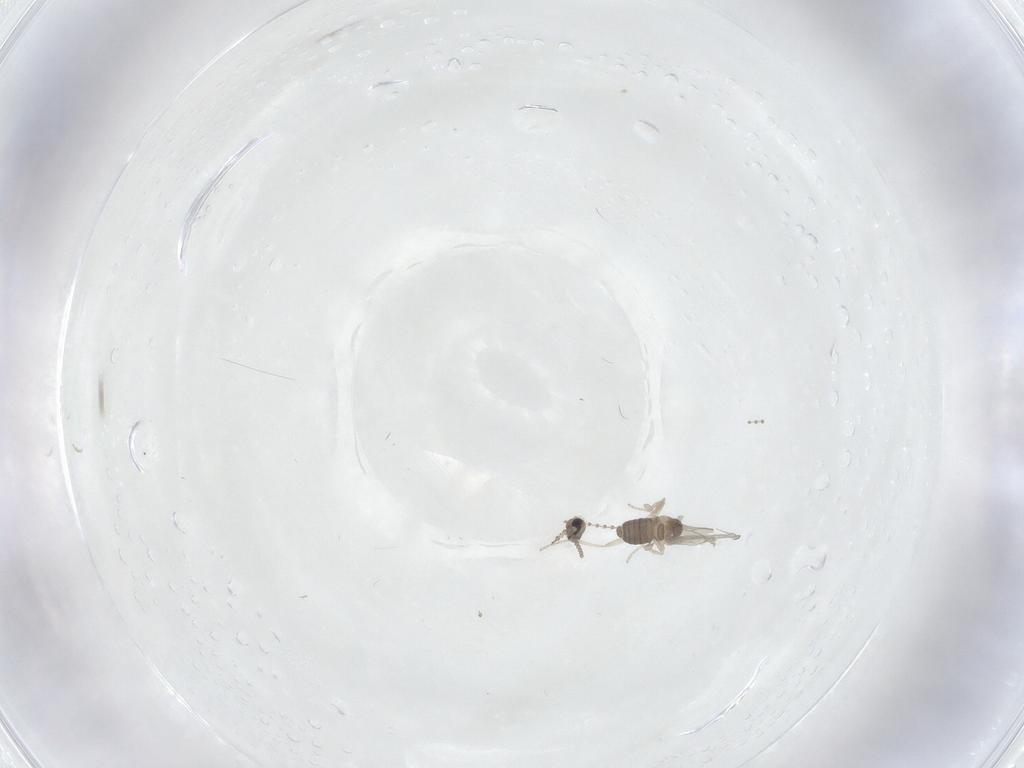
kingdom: Animalia
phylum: Arthropoda
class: Insecta
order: Diptera
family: Cecidomyiidae
